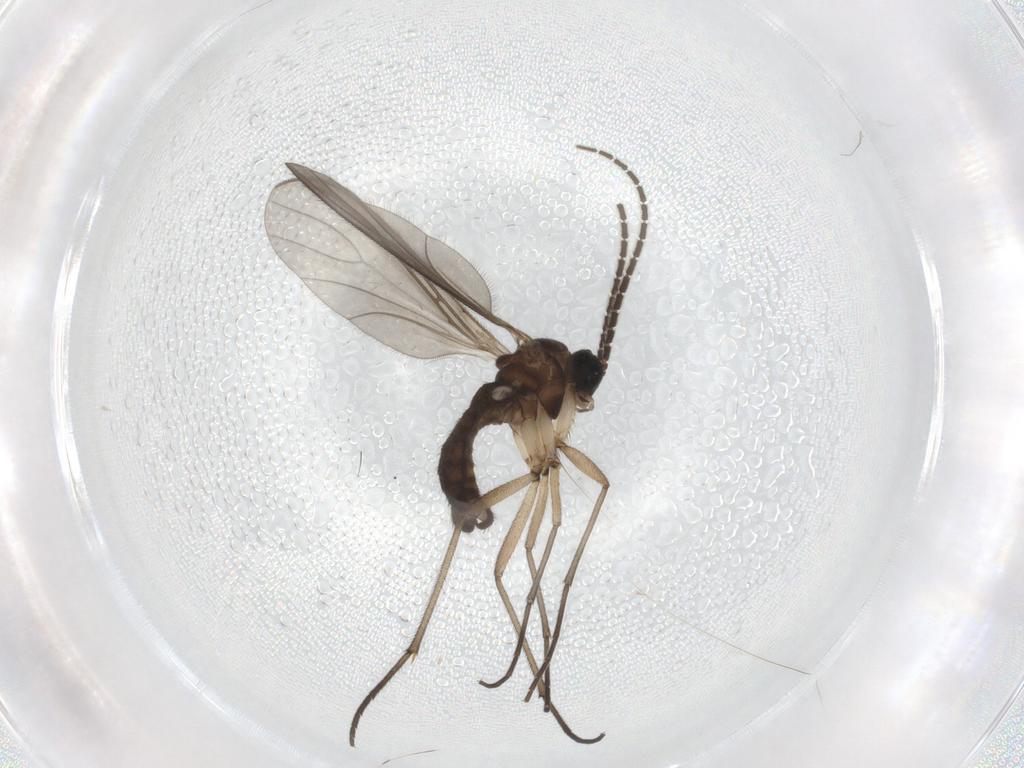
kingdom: Animalia
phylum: Arthropoda
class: Insecta
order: Diptera
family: Sciaridae
